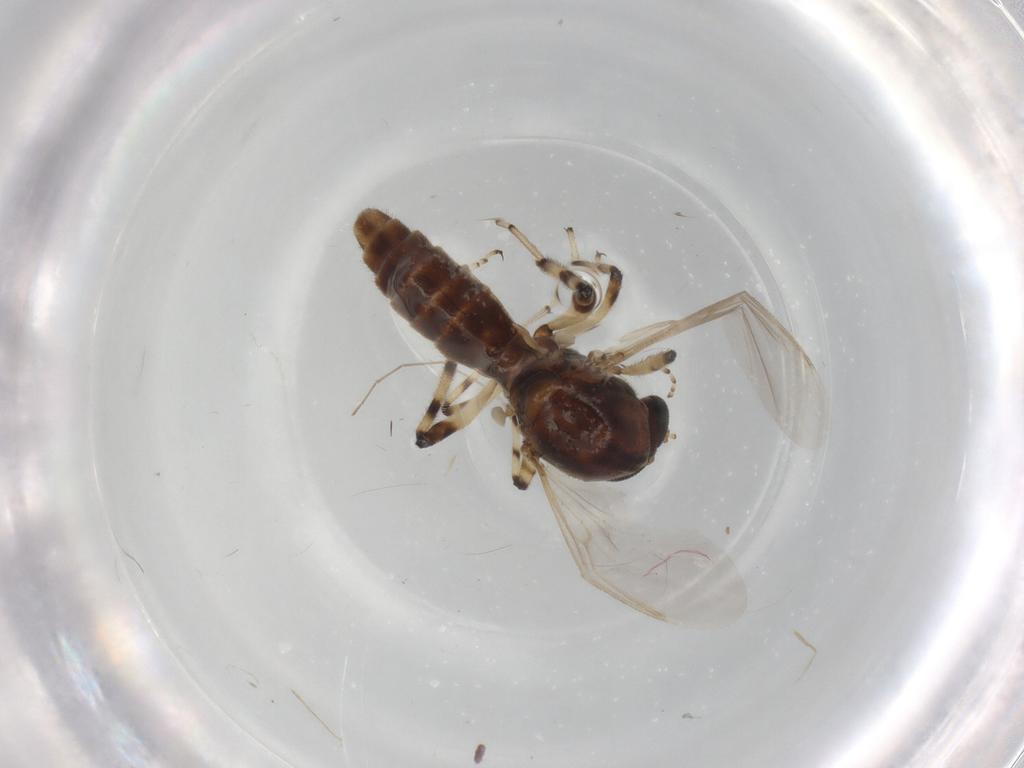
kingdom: Animalia
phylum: Arthropoda
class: Insecta
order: Diptera
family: Ceratopogonidae
